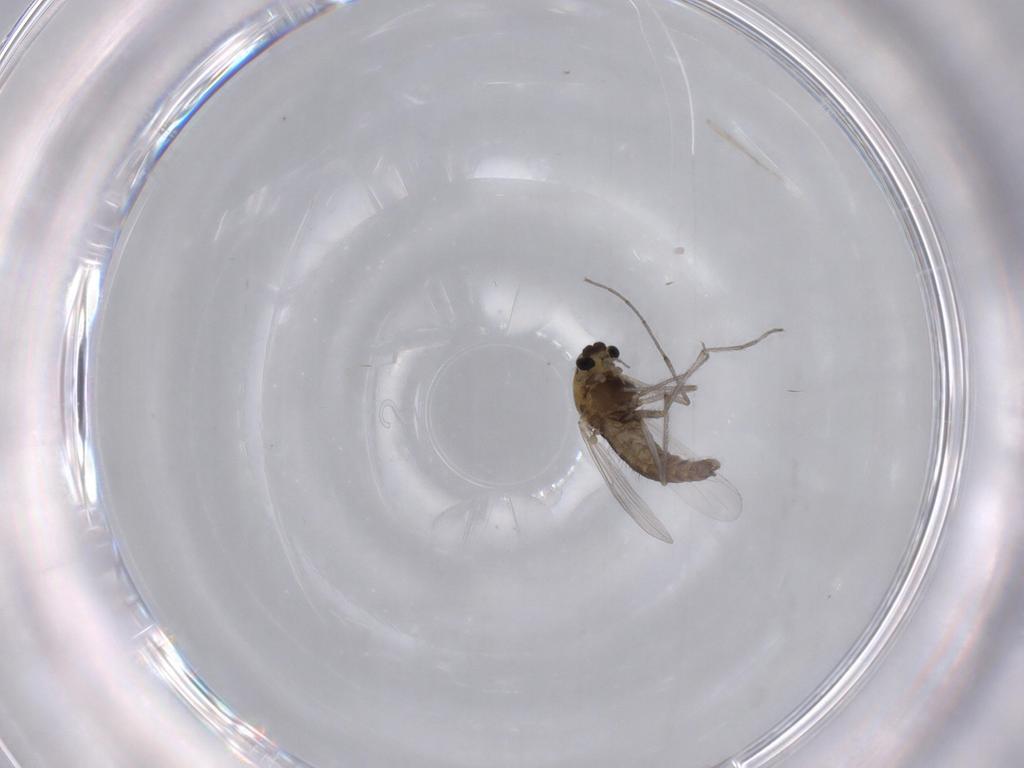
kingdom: Animalia
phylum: Arthropoda
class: Insecta
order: Diptera
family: Chironomidae
